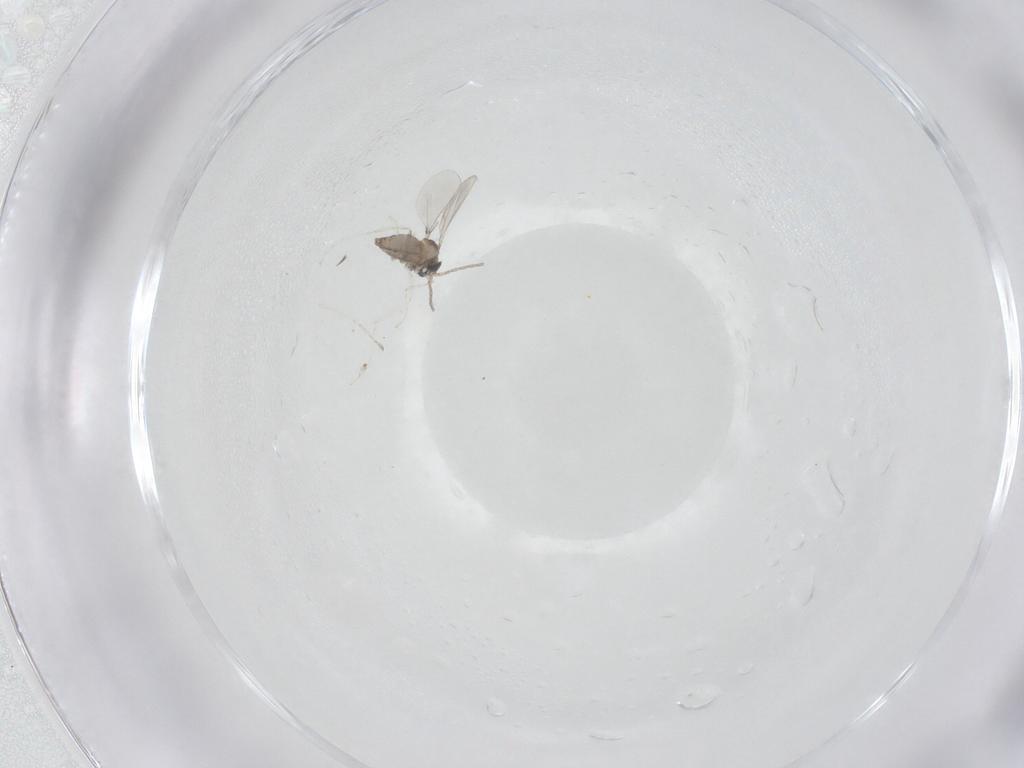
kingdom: Animalia
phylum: Arthropoda
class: Insecta
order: Diptera
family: Cecidomyiidae
